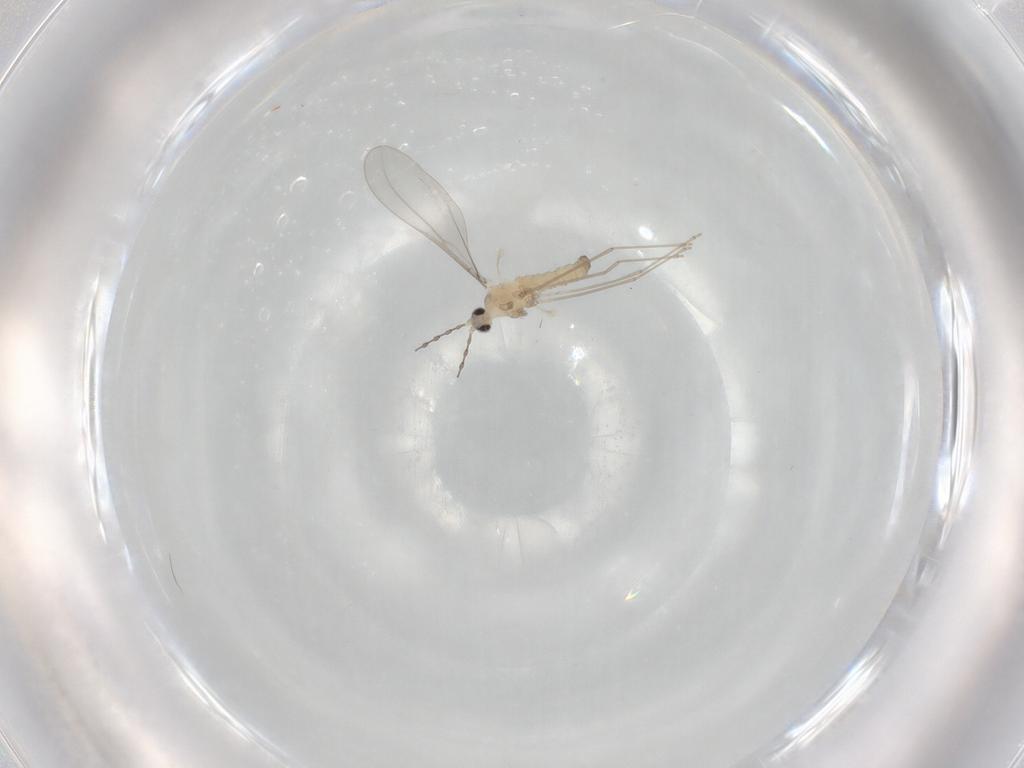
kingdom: Animalia
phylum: Arthropoda
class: Insecta
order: Diptera
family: Cecidomyiidae
